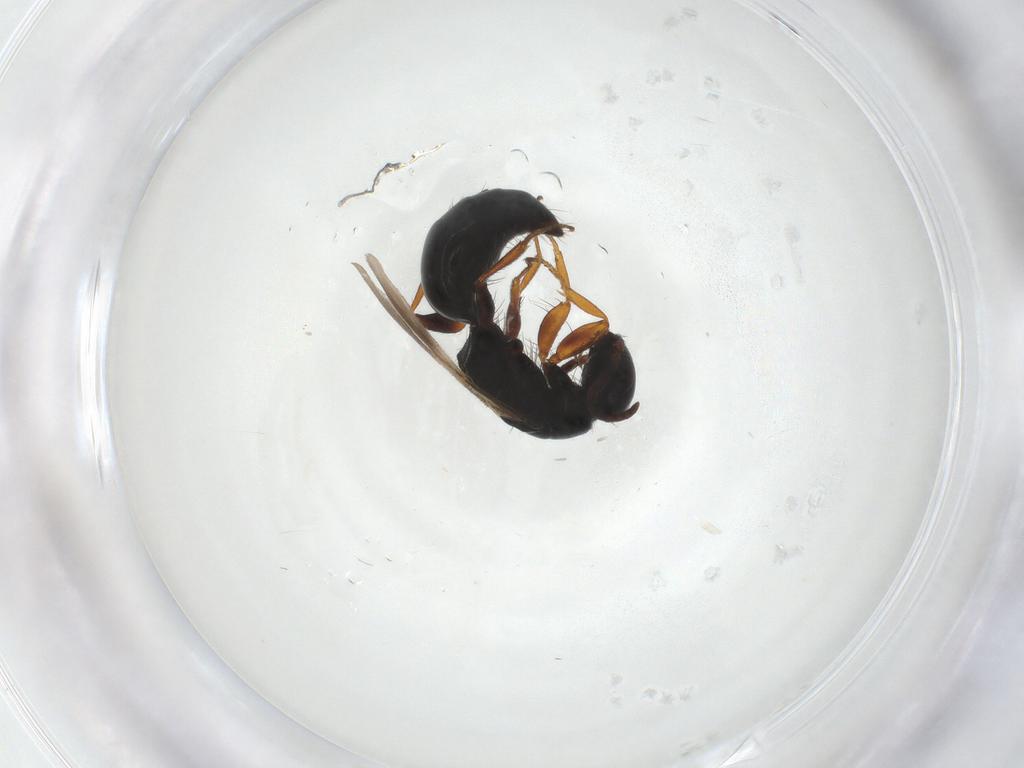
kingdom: Animalia
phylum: Arthropoda
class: Insecta
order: Hymenoptera
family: Bethylidae
